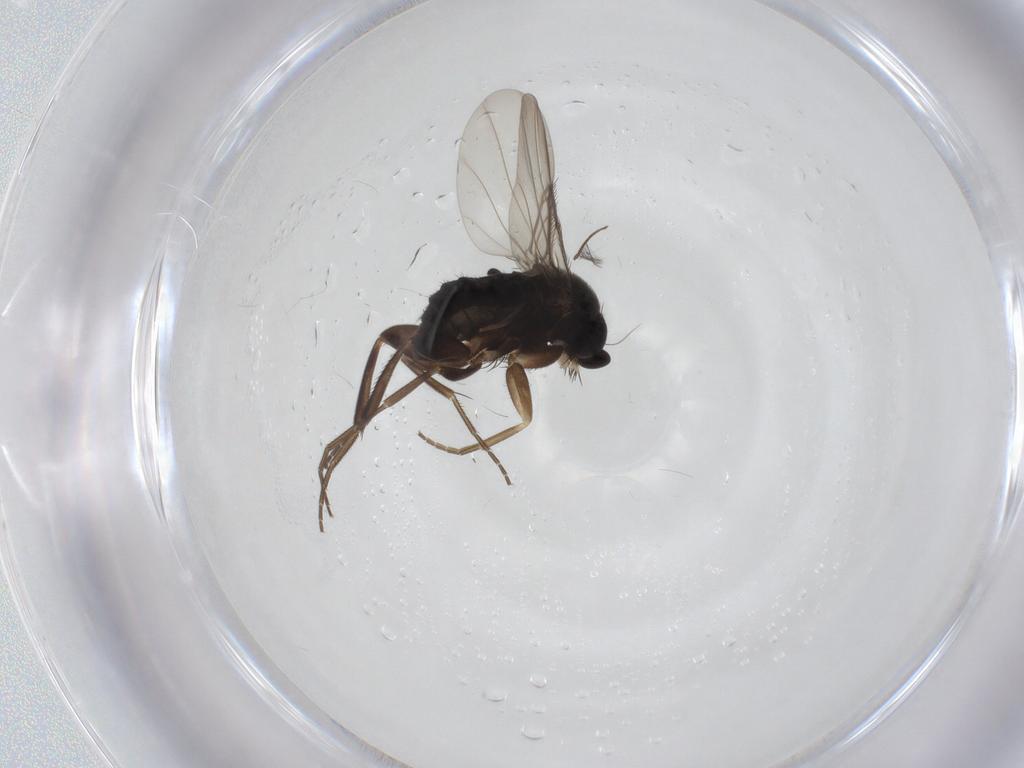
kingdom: Animalia
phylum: Arthropoda
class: Insecta
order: Diptera
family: Phoridae
